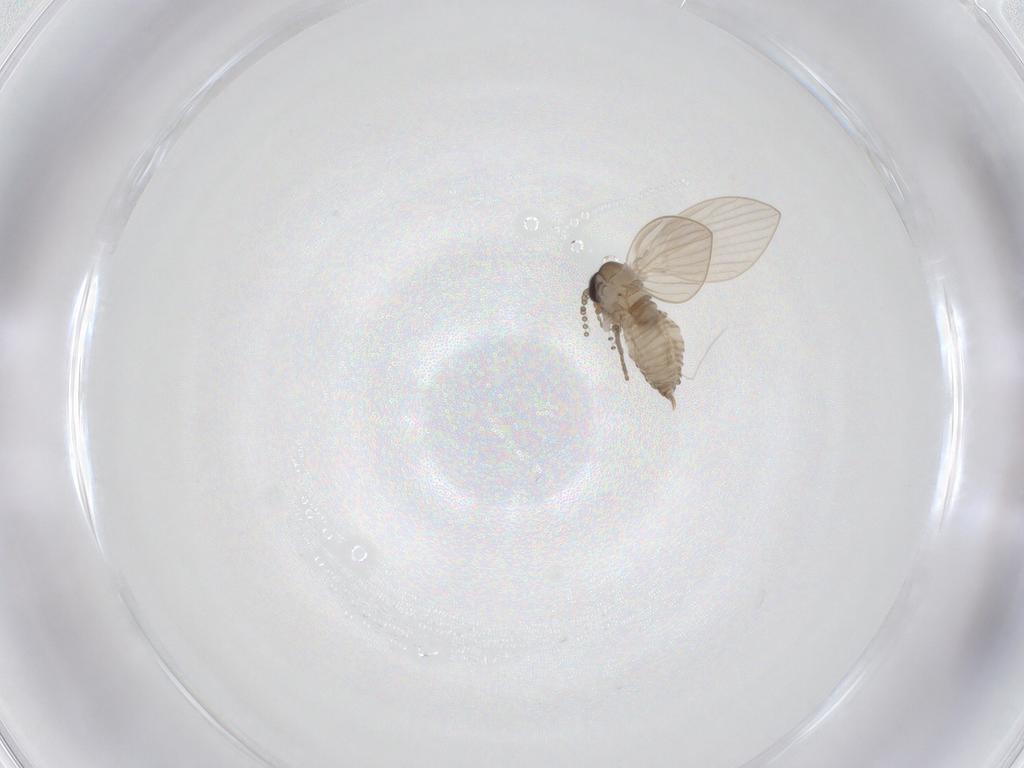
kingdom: Animalia
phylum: Arthropoda
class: Insecta
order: Diptera
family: Psychodidae
